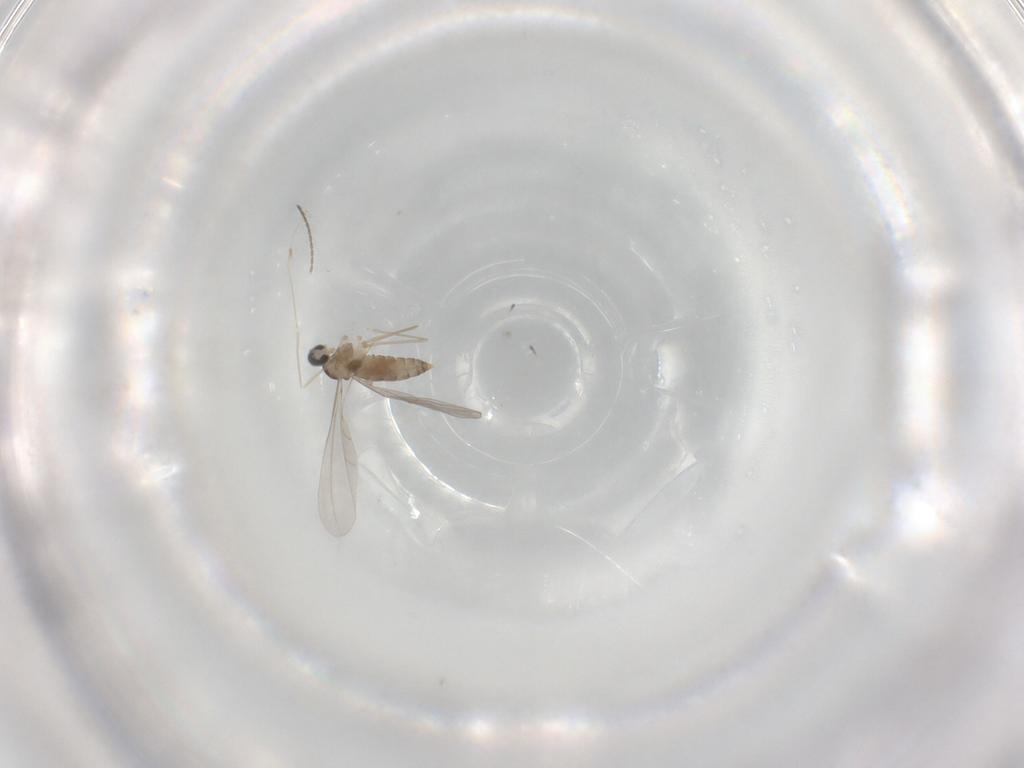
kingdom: Animalia
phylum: Arthropoda
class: Insecta
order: Diptera
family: Cecidomyiidae
